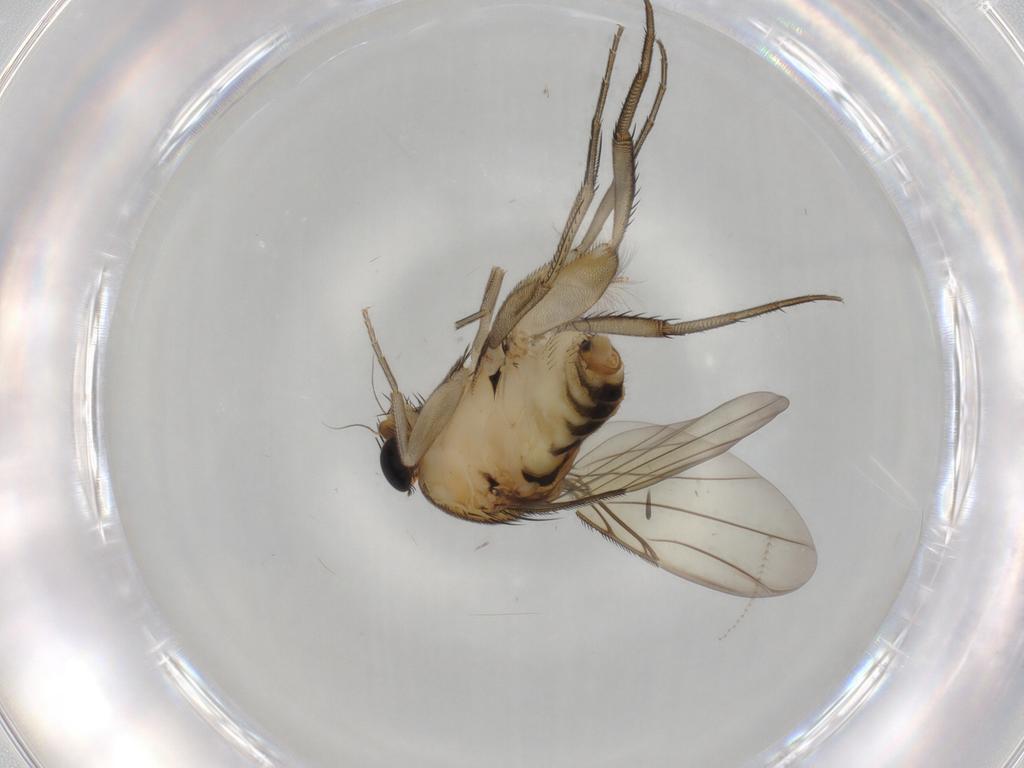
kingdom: Animalia
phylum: Arthropoda
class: Insecta
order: Diptera
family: Phoridae
